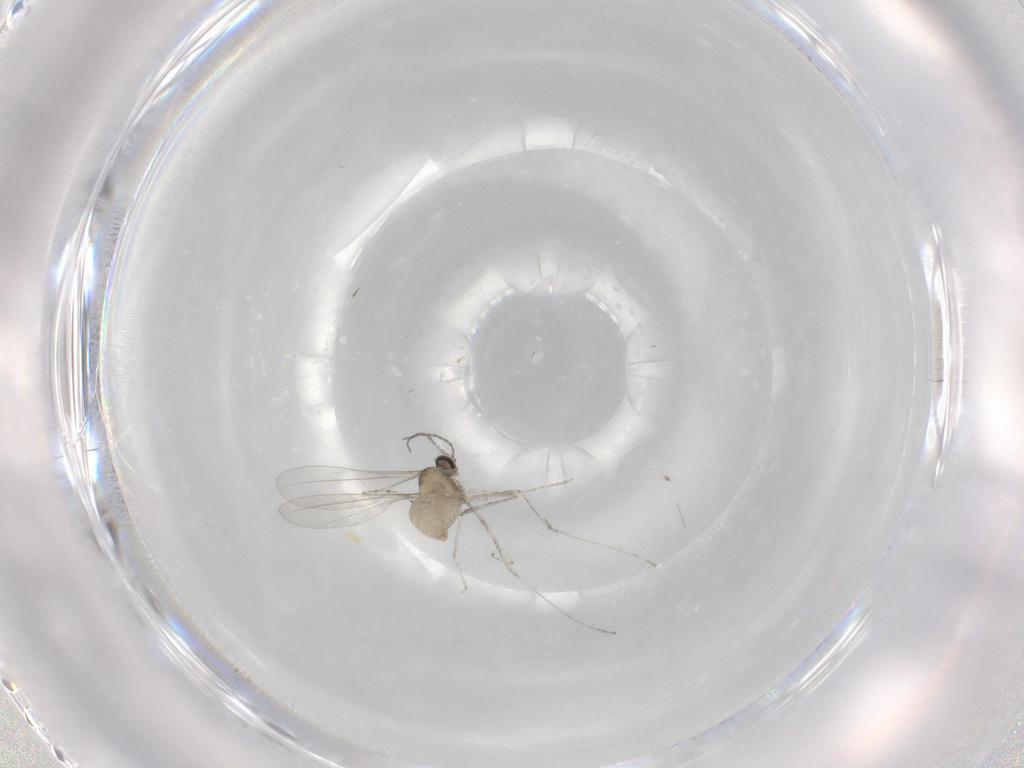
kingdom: Animalia
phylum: Arthropoda
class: Insecta
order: Diptera
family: Cecidomyiidae
